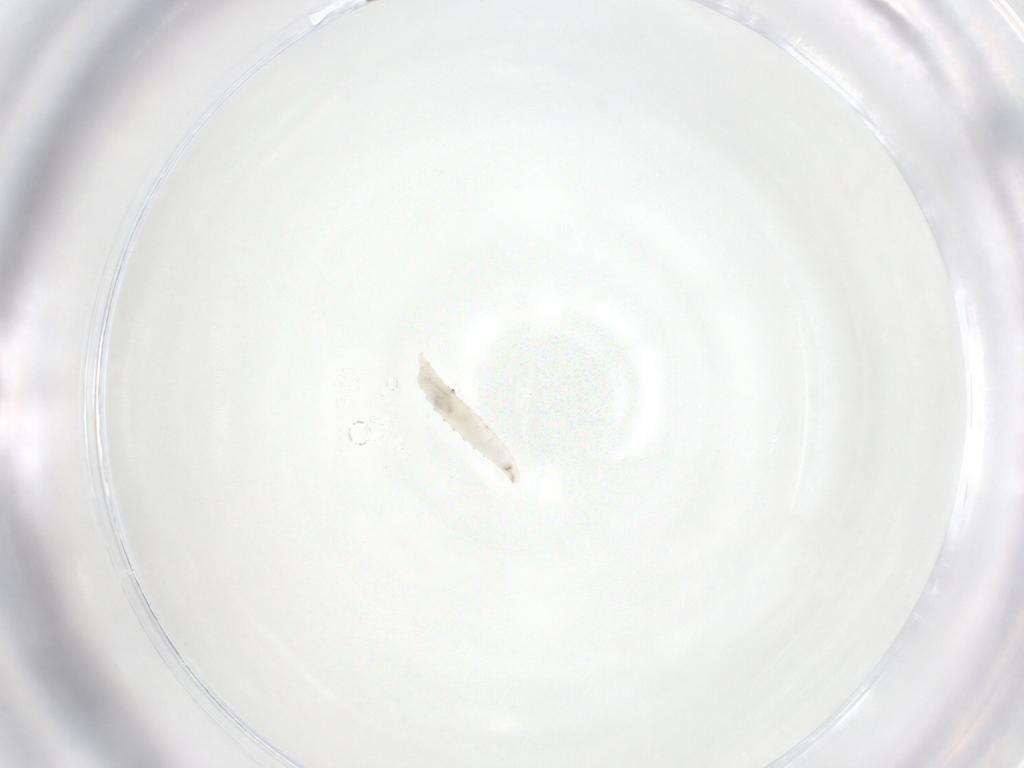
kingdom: Animalia
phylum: Arthropoda
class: Insecta
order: Diptera
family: Drosophilidae
